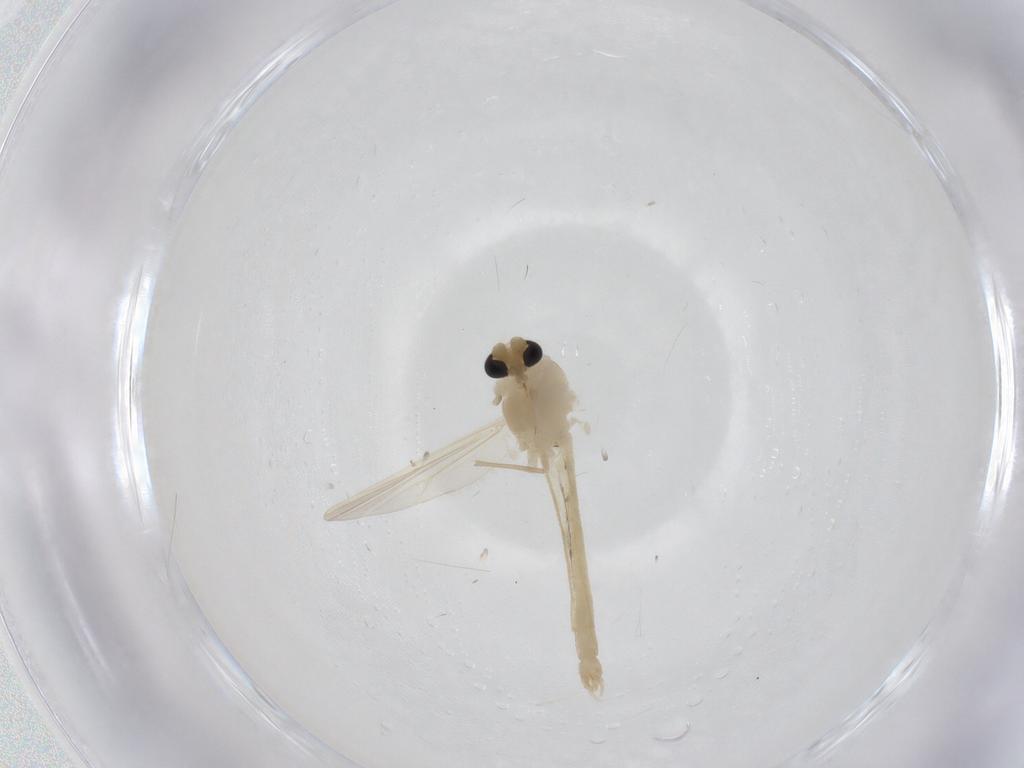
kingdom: Animalia
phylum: Arthropoda
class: Insecta
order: Diptera
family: Chironomidae
